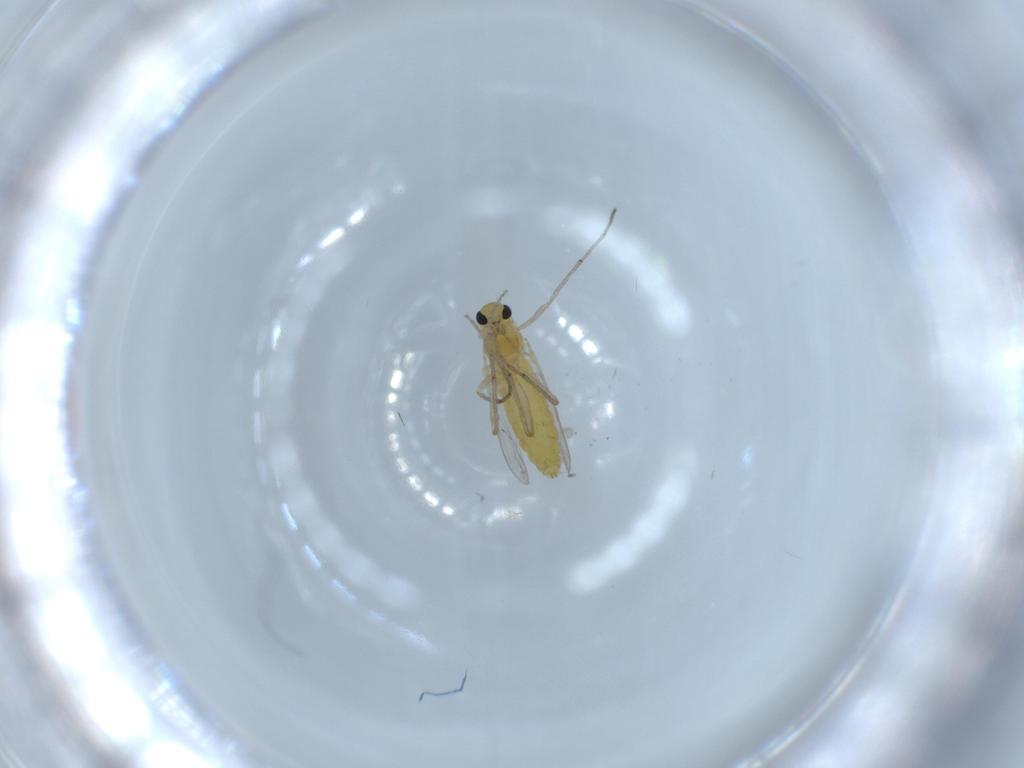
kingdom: Animalia
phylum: Arthropoda
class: Insecta
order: Diptera
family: Chironomidae
